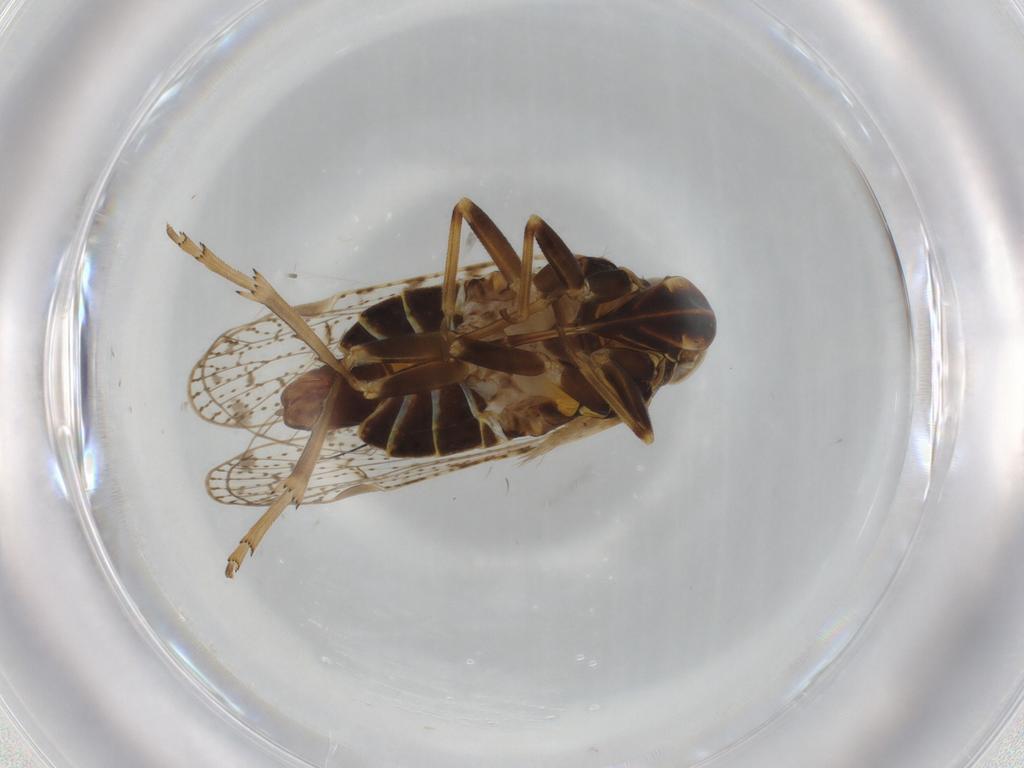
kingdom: Animalia
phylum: Arthropoda
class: Insecta
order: Hemiptera
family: Cixiidae
